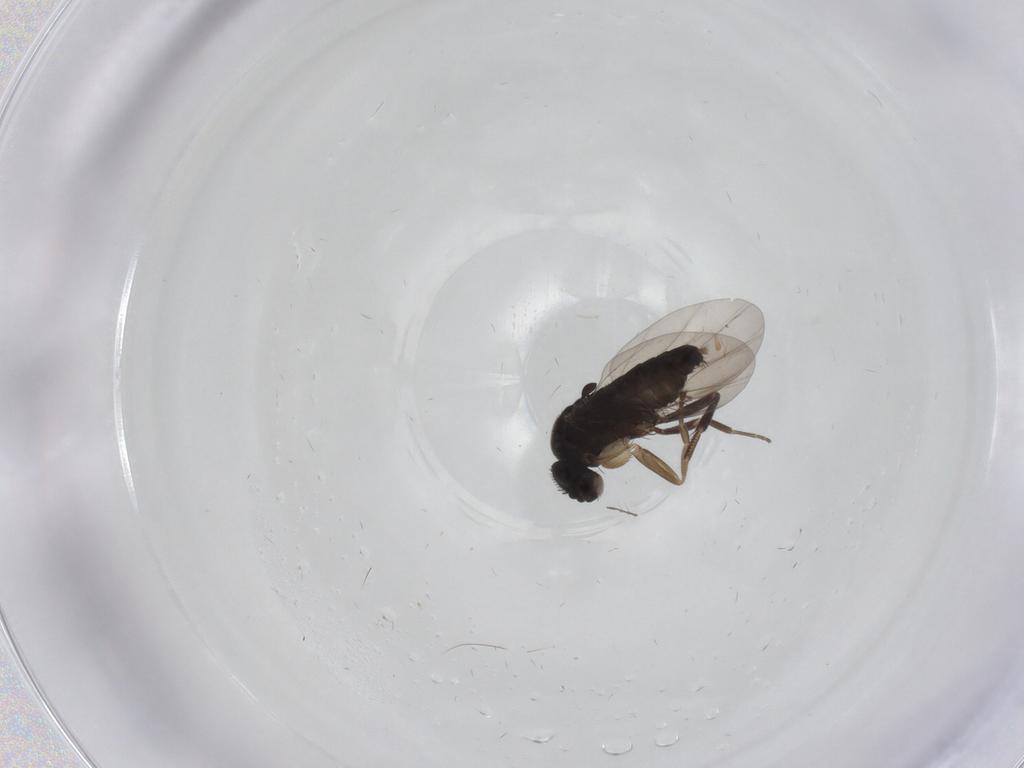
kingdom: Animalia
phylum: Arthropoda
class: Insecta
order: Diptera
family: Phoridae
